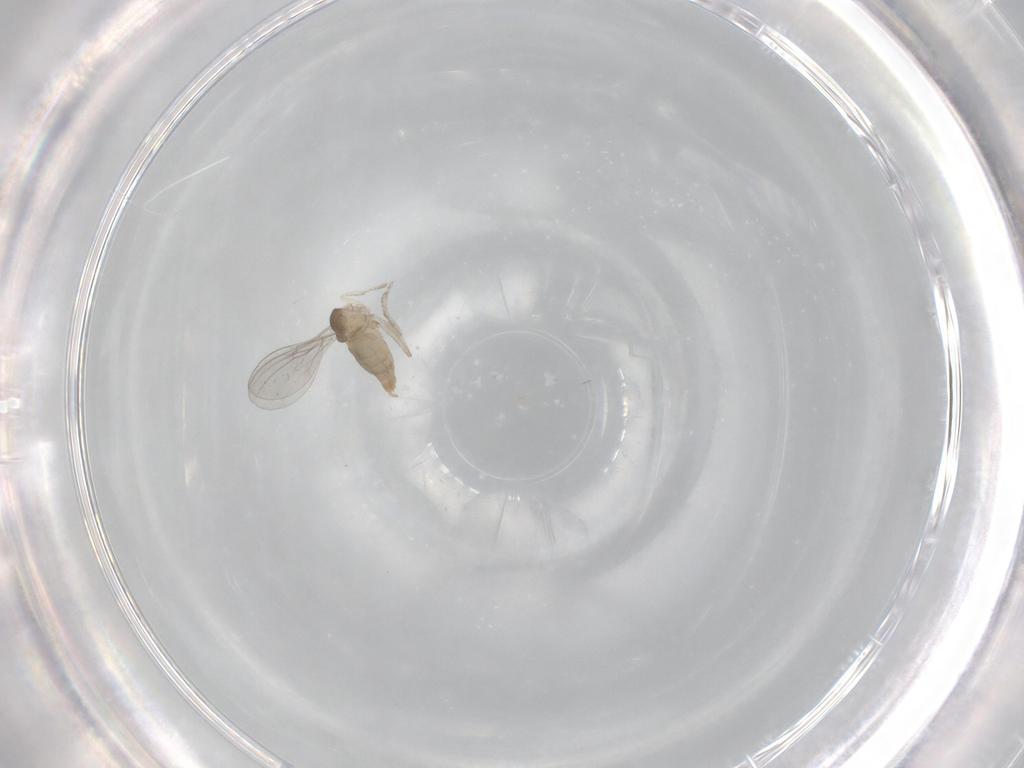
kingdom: Animalia
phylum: Arthropoda
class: Insecta
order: Diptera
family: Cecidomyiidae
